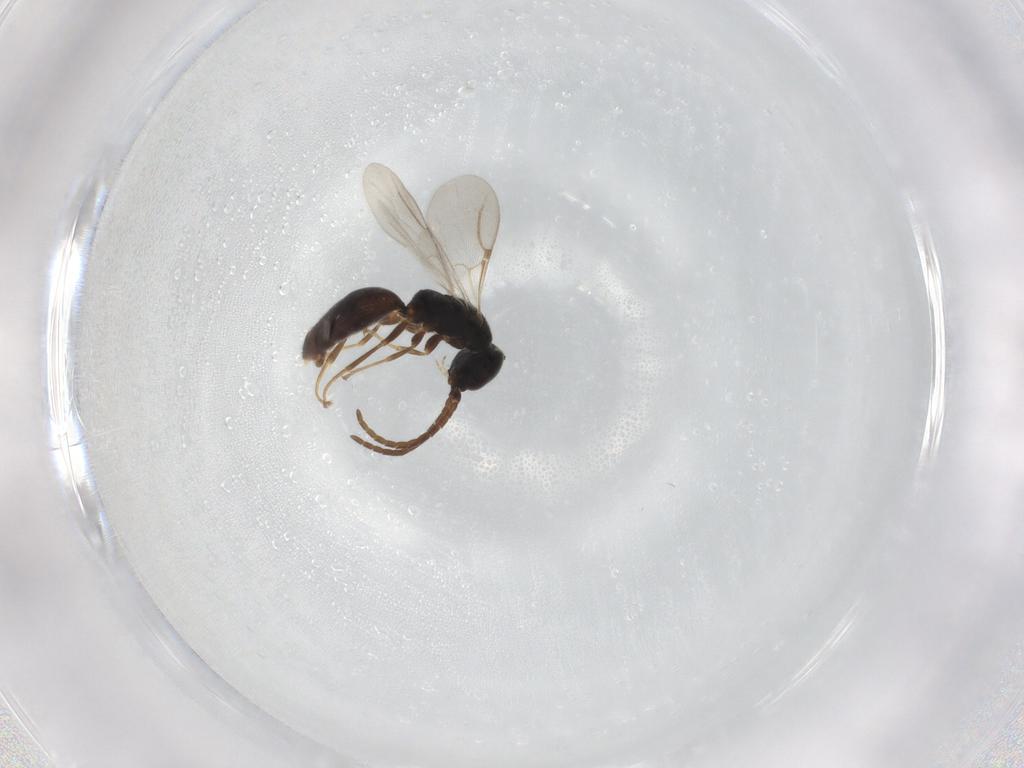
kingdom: Animalia
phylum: Arthropoda
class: Insecta
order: Hymenoptera
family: Bethylidae
